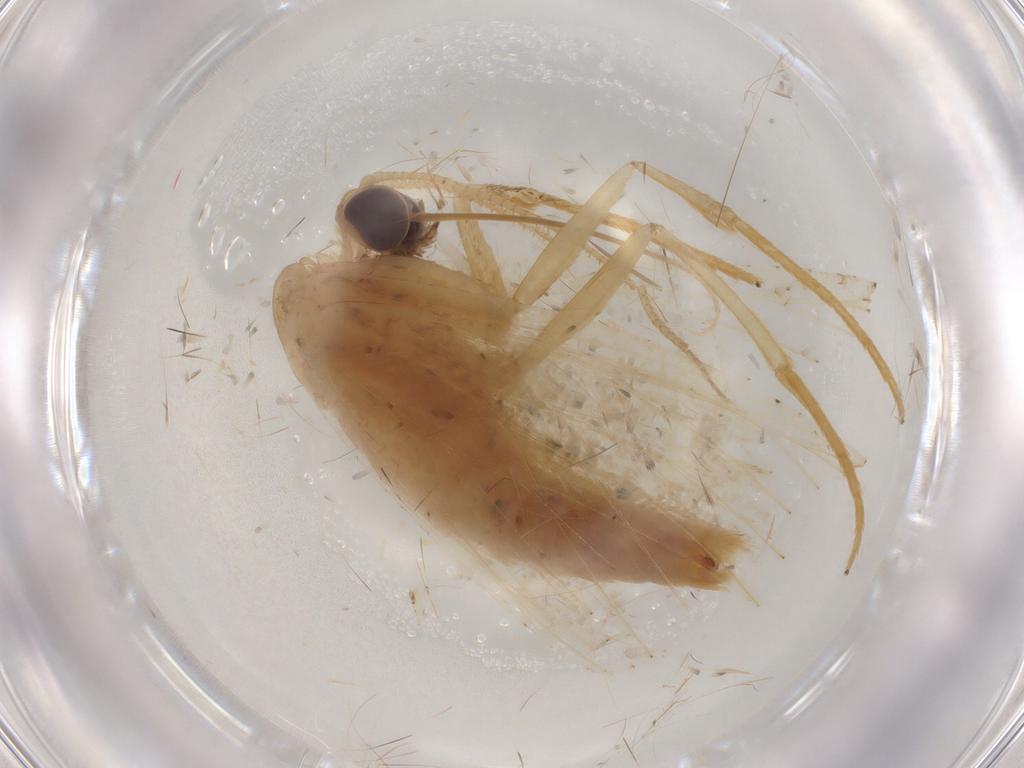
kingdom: Animalia
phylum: Arthropoda
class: Insecta
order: Lepidoptera
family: Geometridae
